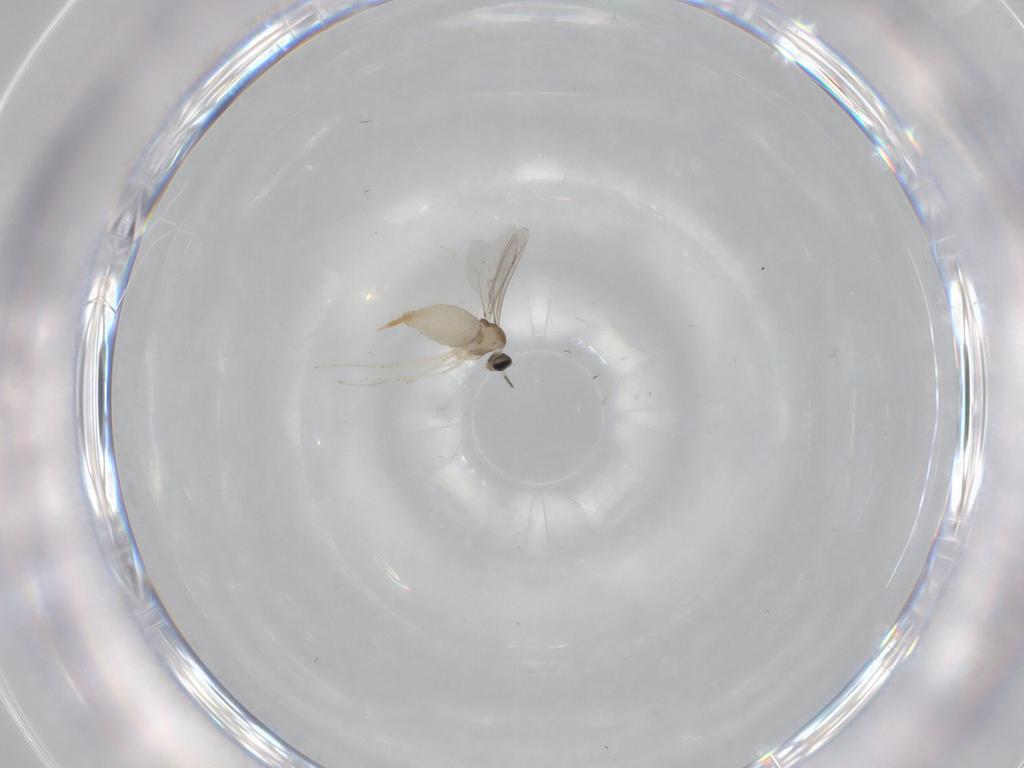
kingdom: Animalia
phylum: Arthropoda
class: Insecta
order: Diptera
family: Cecidomyiidae
